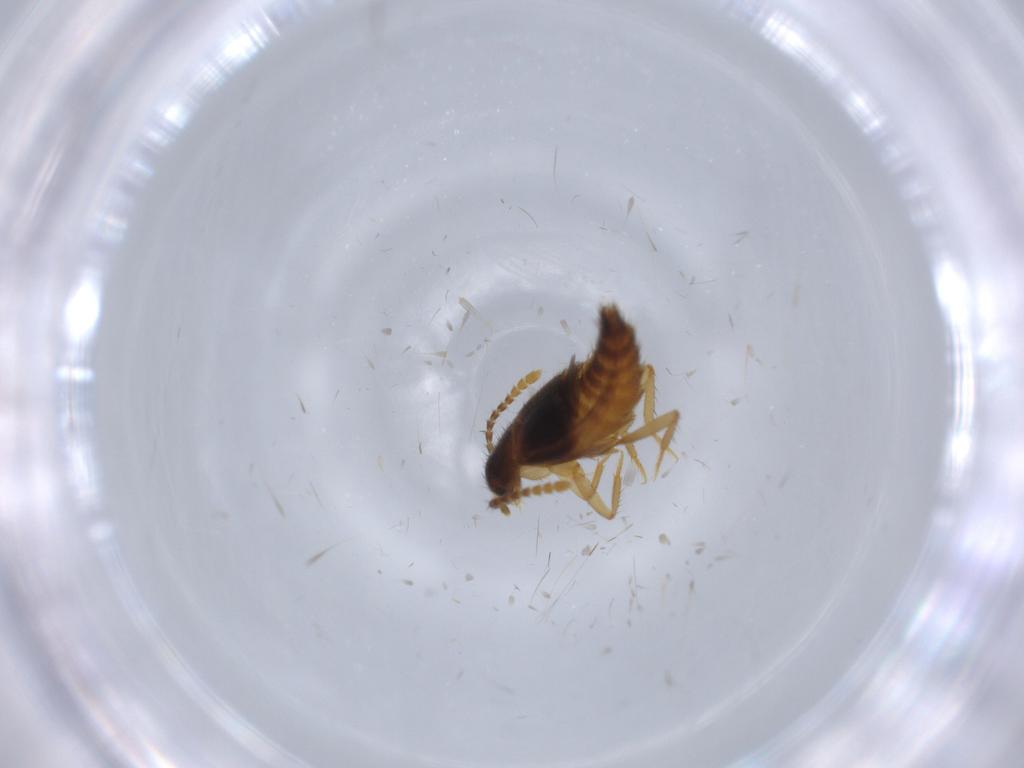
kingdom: Animalia
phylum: Arthropoda
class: Insecta
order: Coleoptera
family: Staphylinidae
